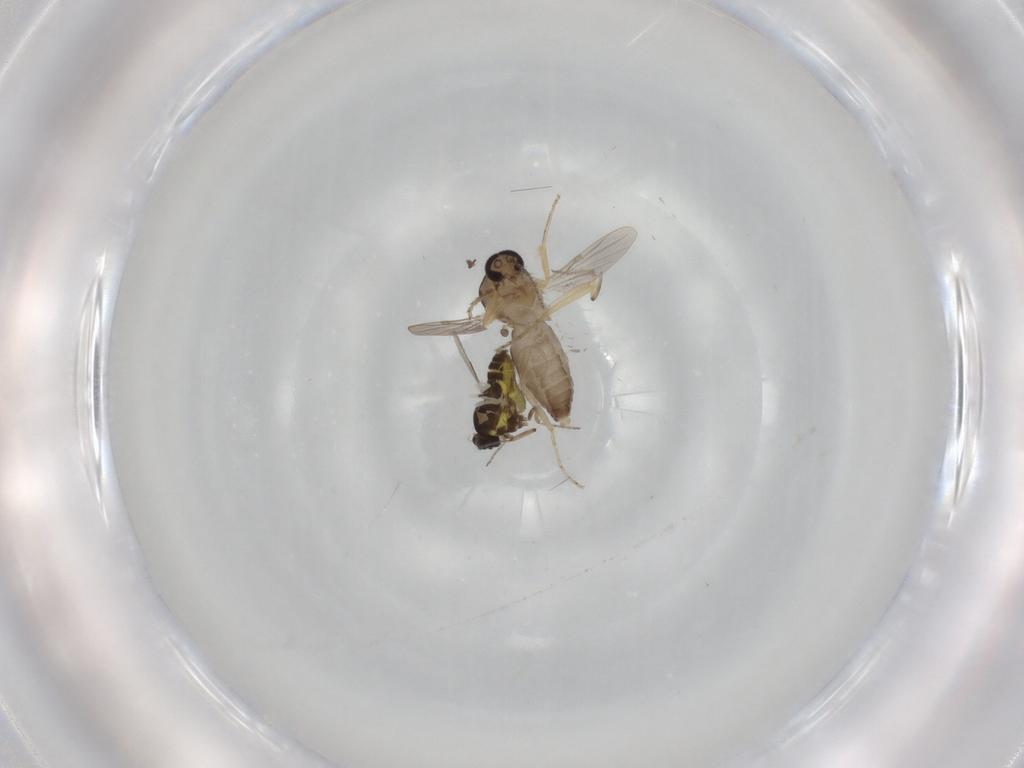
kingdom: Animalia
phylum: Arthropoda
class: Insecta
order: Diptera
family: Ceratopogonidae
